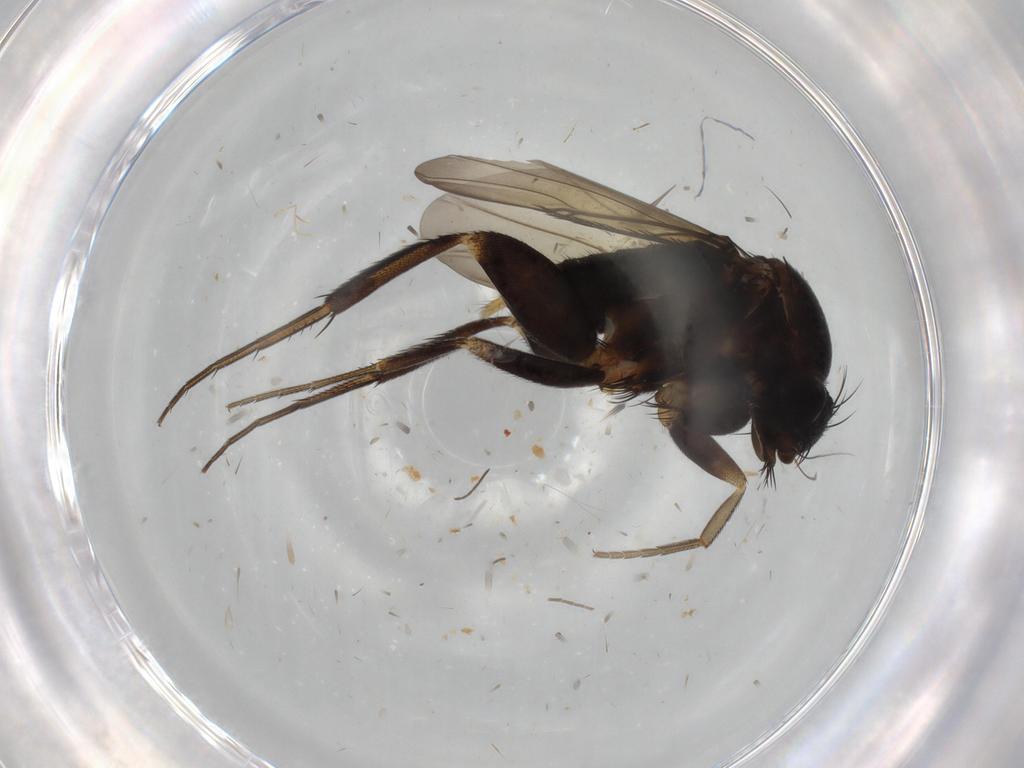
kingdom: Animalia
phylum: Arthropoda
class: Insecta
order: Diptera
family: Phoridae
